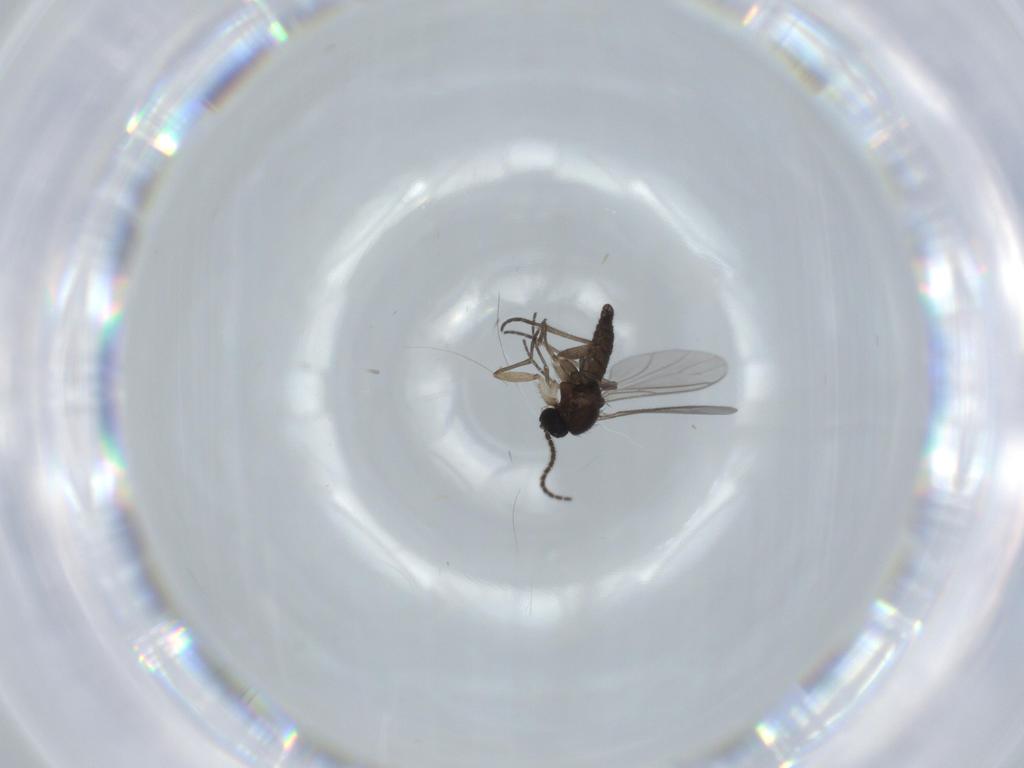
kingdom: Animalia
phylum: Arthropoda
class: Insecta
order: Diptera
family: Sciaridae
